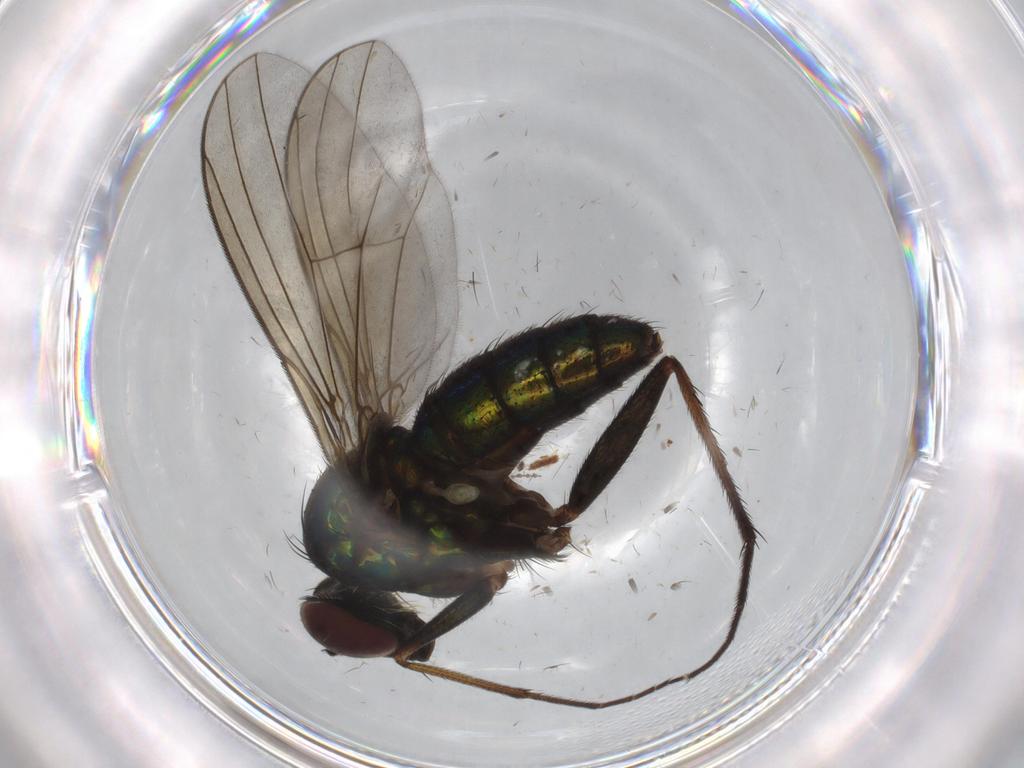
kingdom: Animalia
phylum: Arthropoda
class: Insecta
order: Diptera
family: Dolichopodidae
